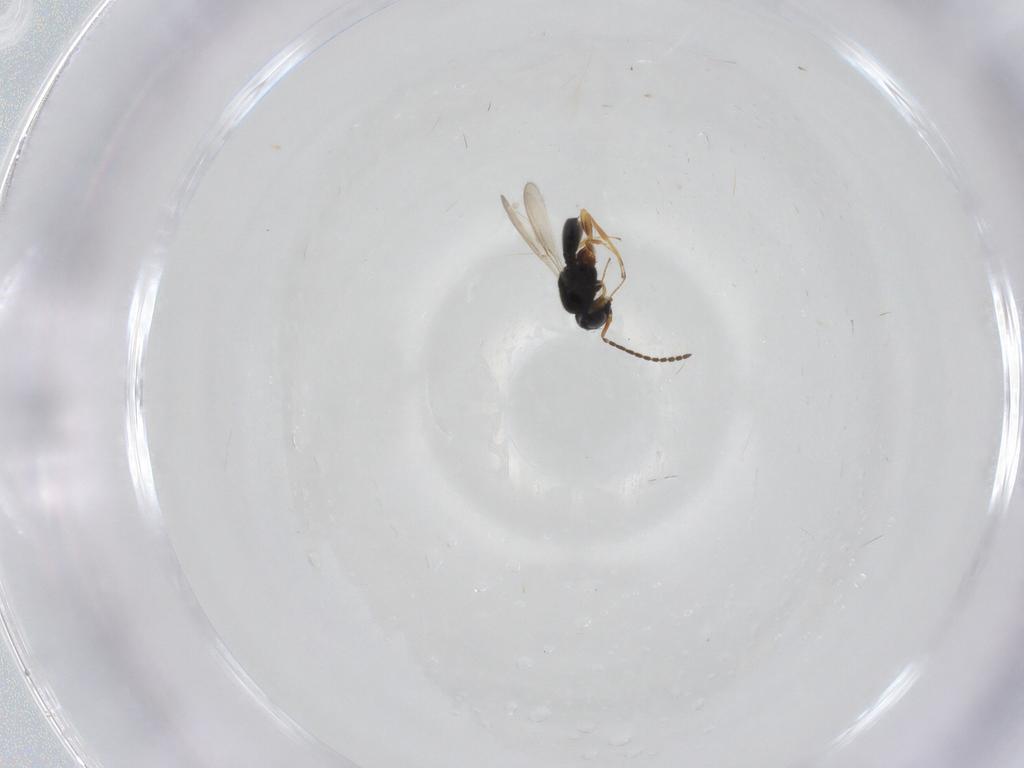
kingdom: Animalia
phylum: Arthropoda
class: Insecta
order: Hymenoptera
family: Scelionidae
